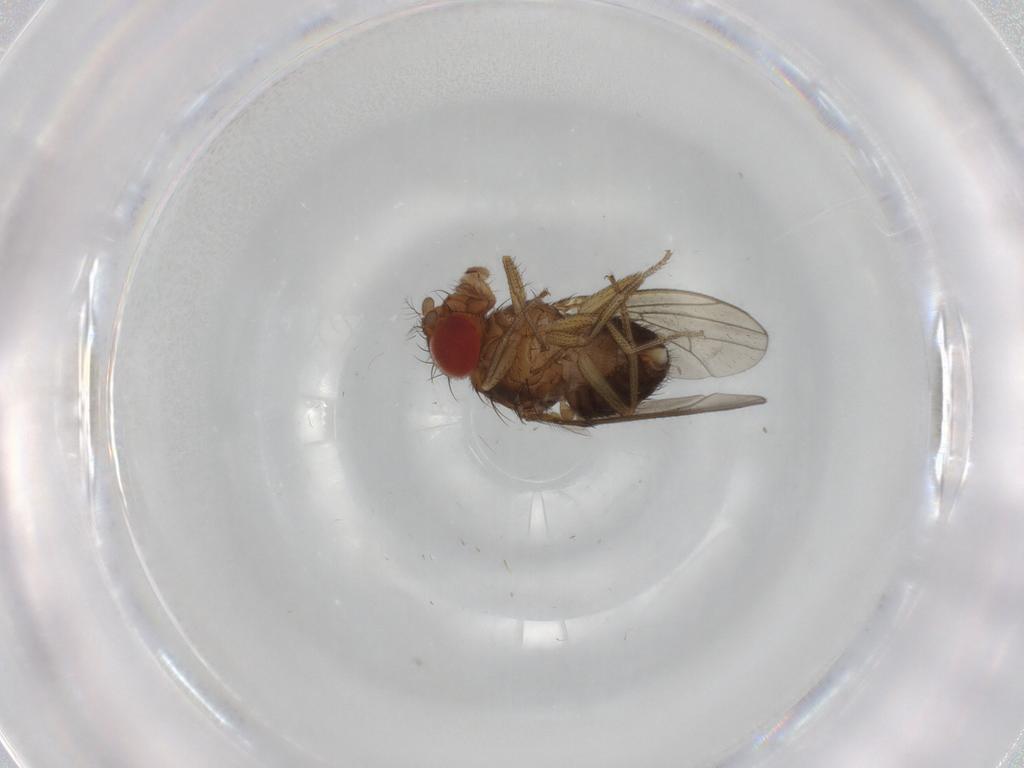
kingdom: Animalia
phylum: Arthropoda
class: Insecta
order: Diptera
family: Drosophilidae
